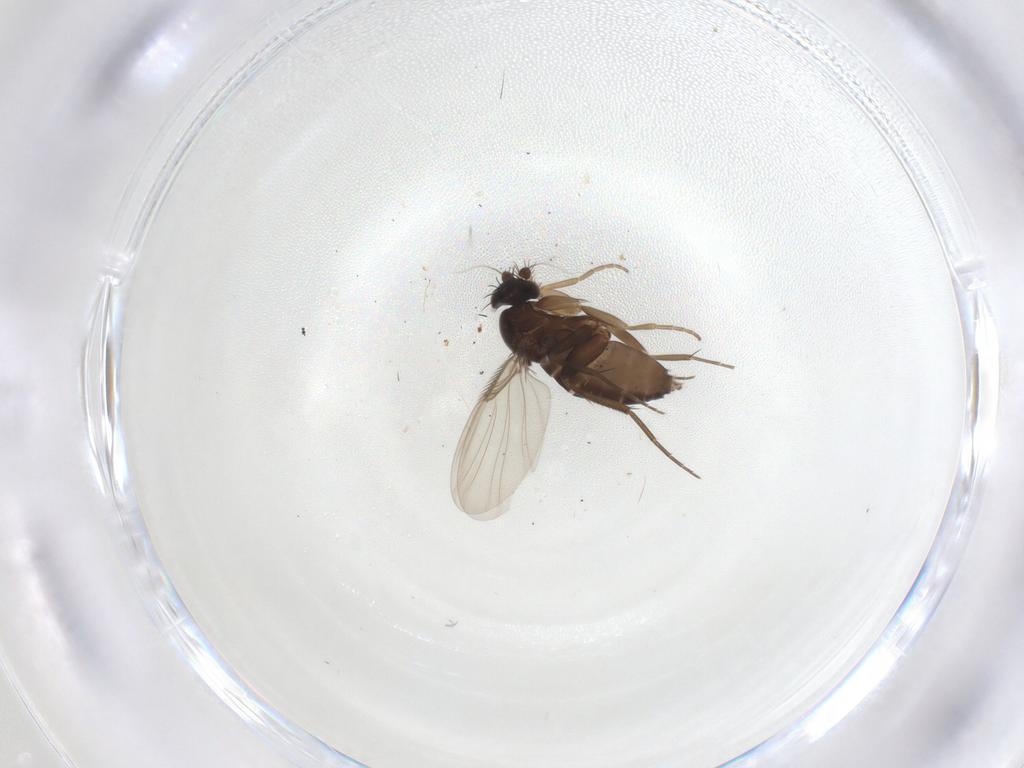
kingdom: Animalia
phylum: Arthropoda
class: Insecta
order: Diptera
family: Phoridae
